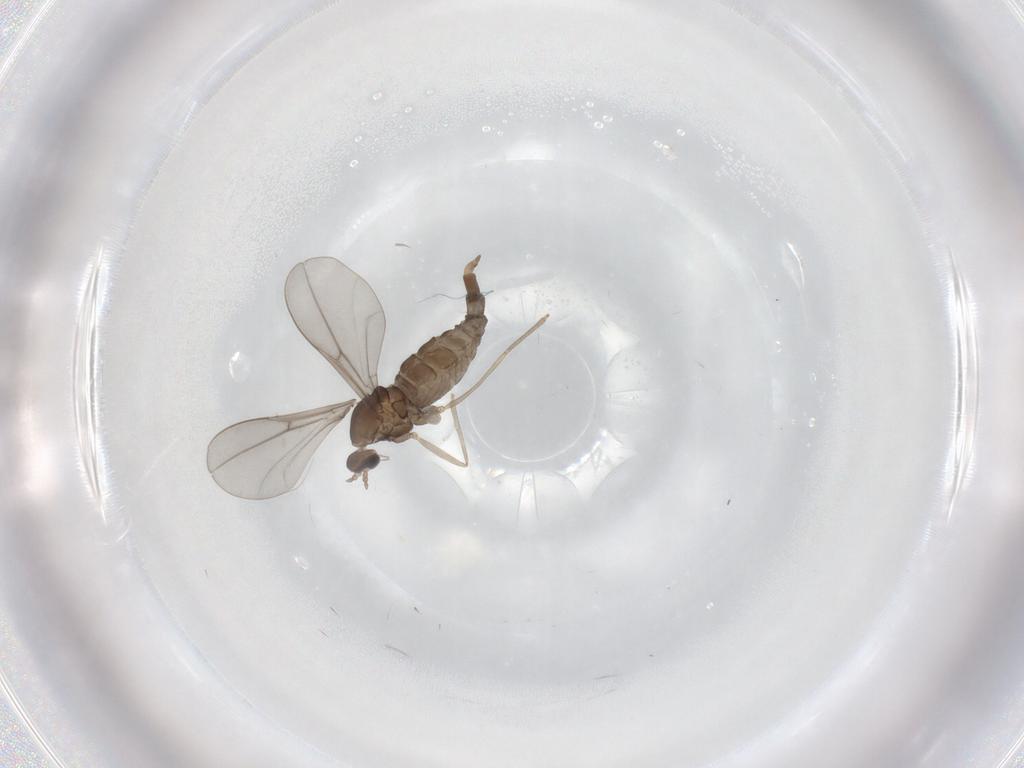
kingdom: Animalia
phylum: Arthropoda
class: Insecta
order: Diptera
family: Cecidomyiidae
